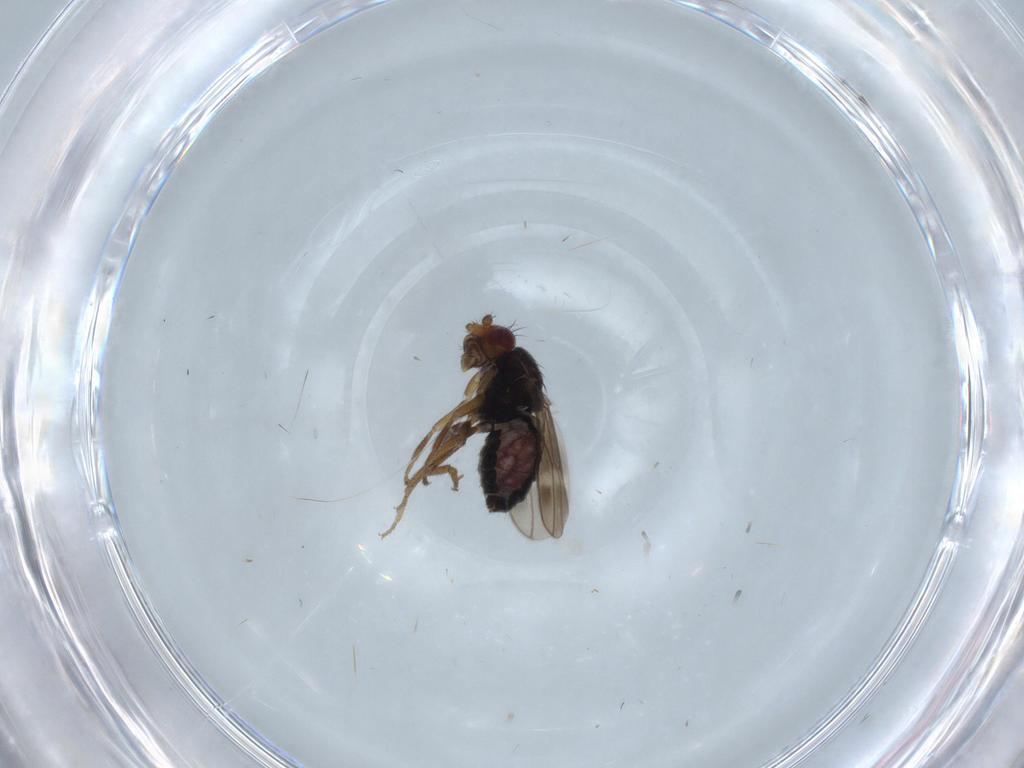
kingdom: Animalia
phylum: Arthropoda
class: Insecta
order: Diptera
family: Sphaeroceridae
